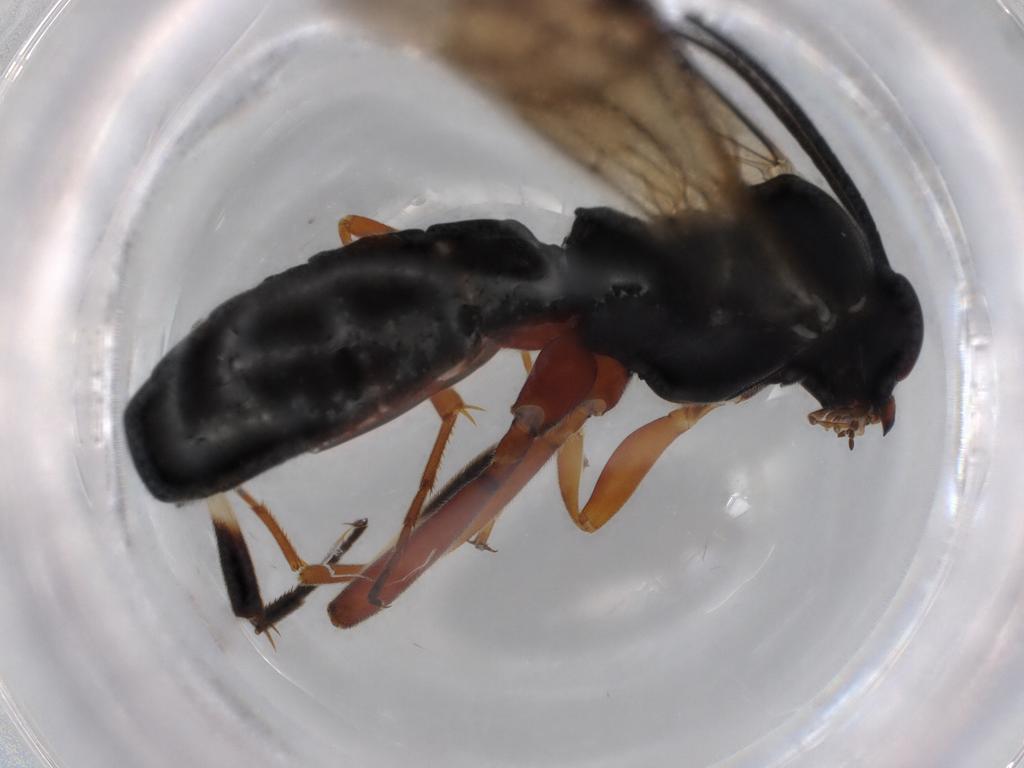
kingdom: Animalia
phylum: Arthropoda
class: Insecta
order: Hymenoptera
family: Ichneumonidae
